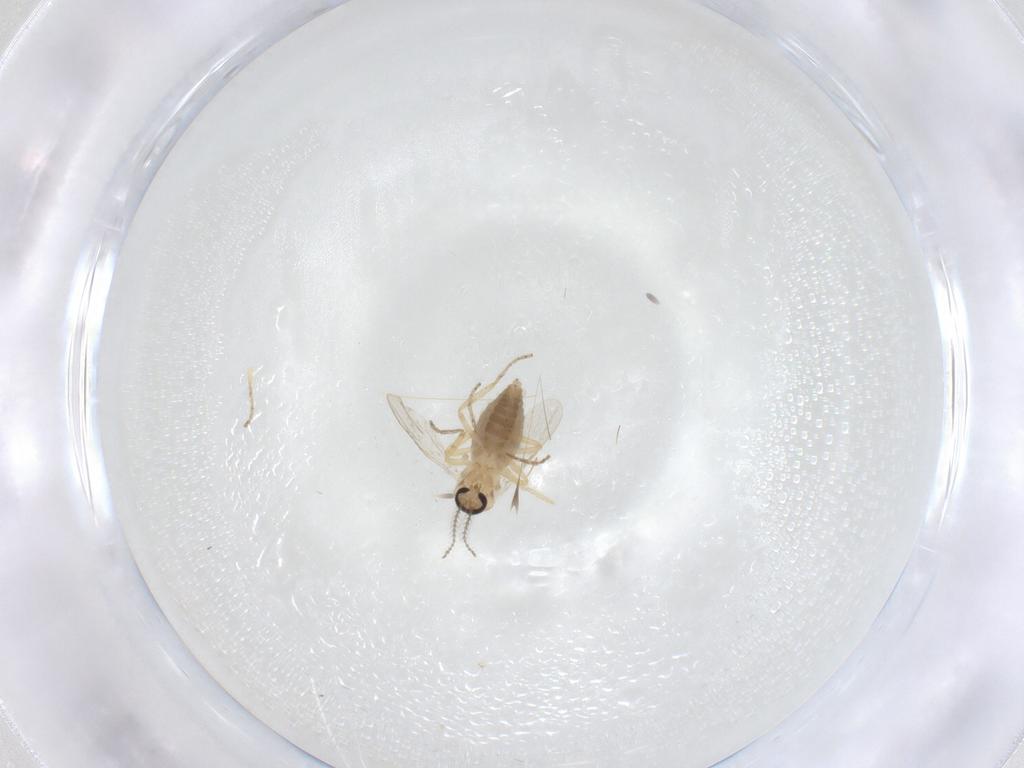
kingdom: Animalia
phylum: Arthropoda
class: Insecta
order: Diptera
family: Ceratopogonidae
